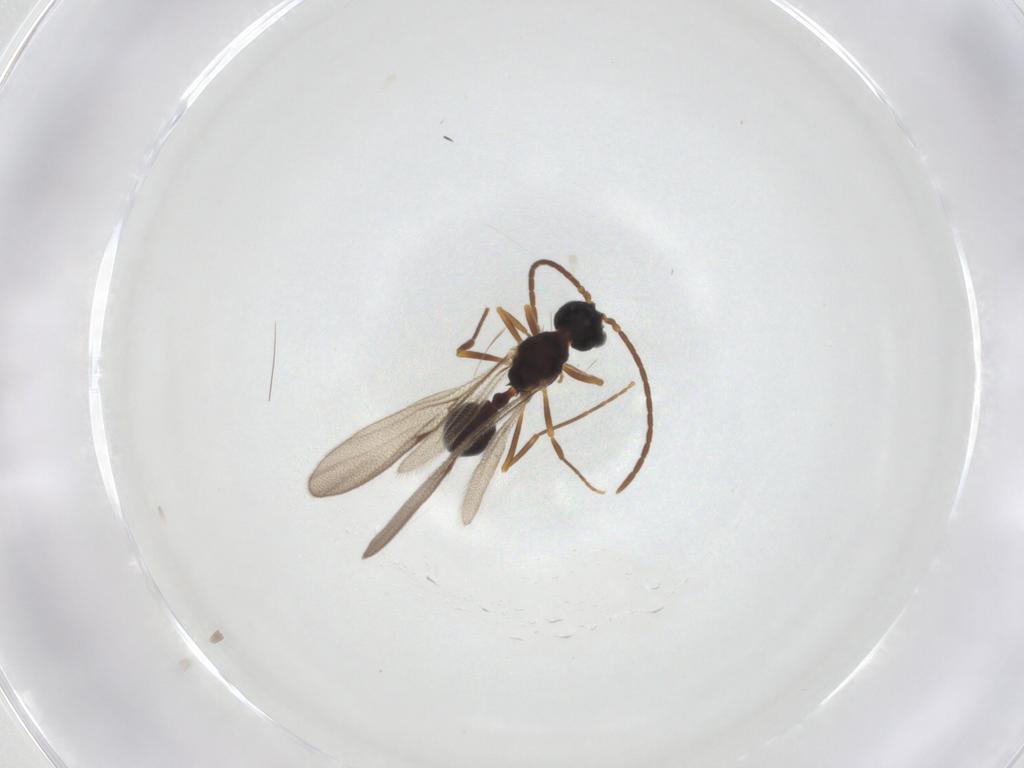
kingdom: Animalia
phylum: Arthropoda
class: Insecta
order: Hymenoptera
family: Formicidae
